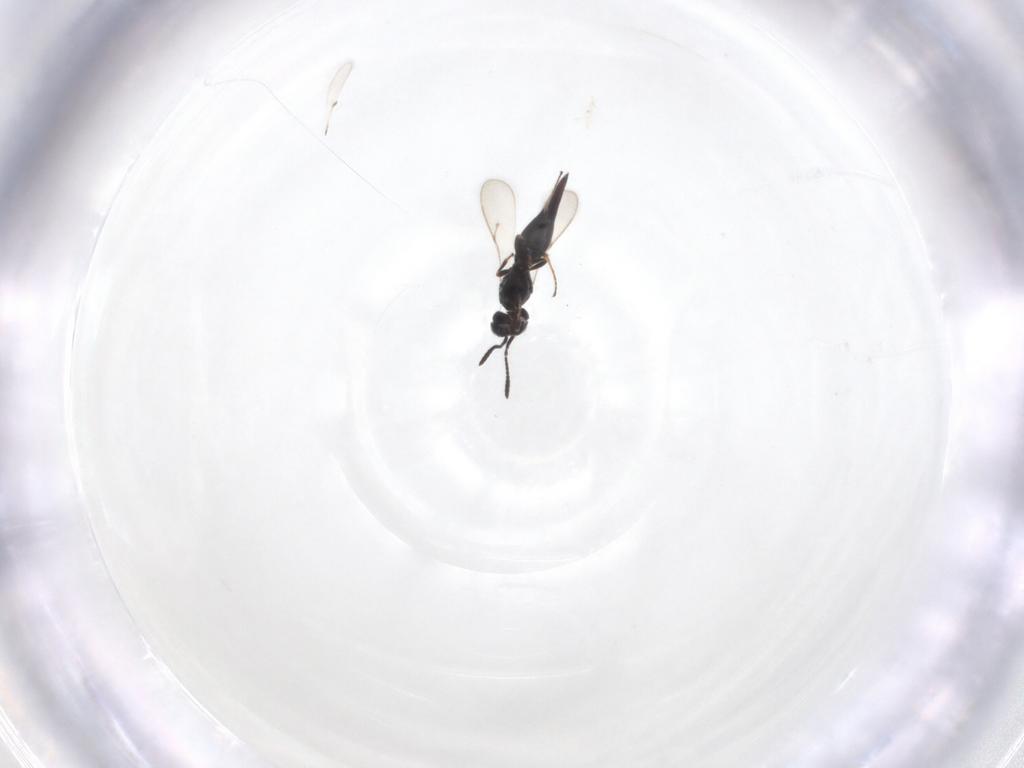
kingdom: Animalia
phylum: Arthropoda
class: Insecta
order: Hymenoptera
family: Scelionidae
